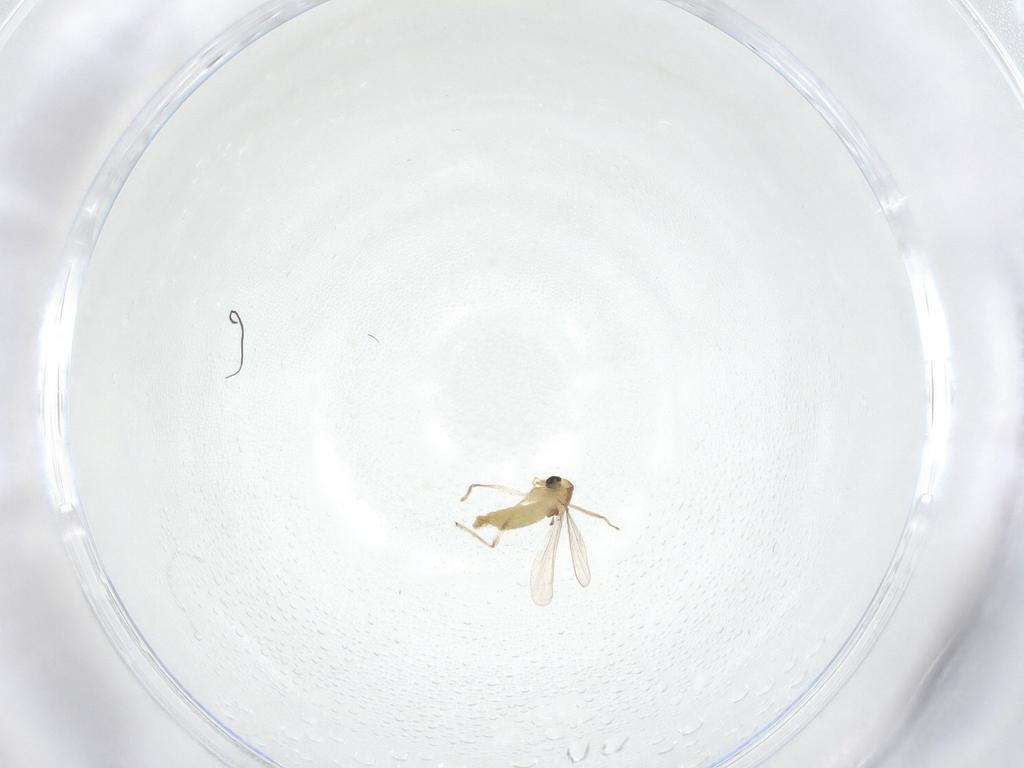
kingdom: Animalia
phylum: Arthropoda
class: Insecta
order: Diptera
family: Chironomidae
